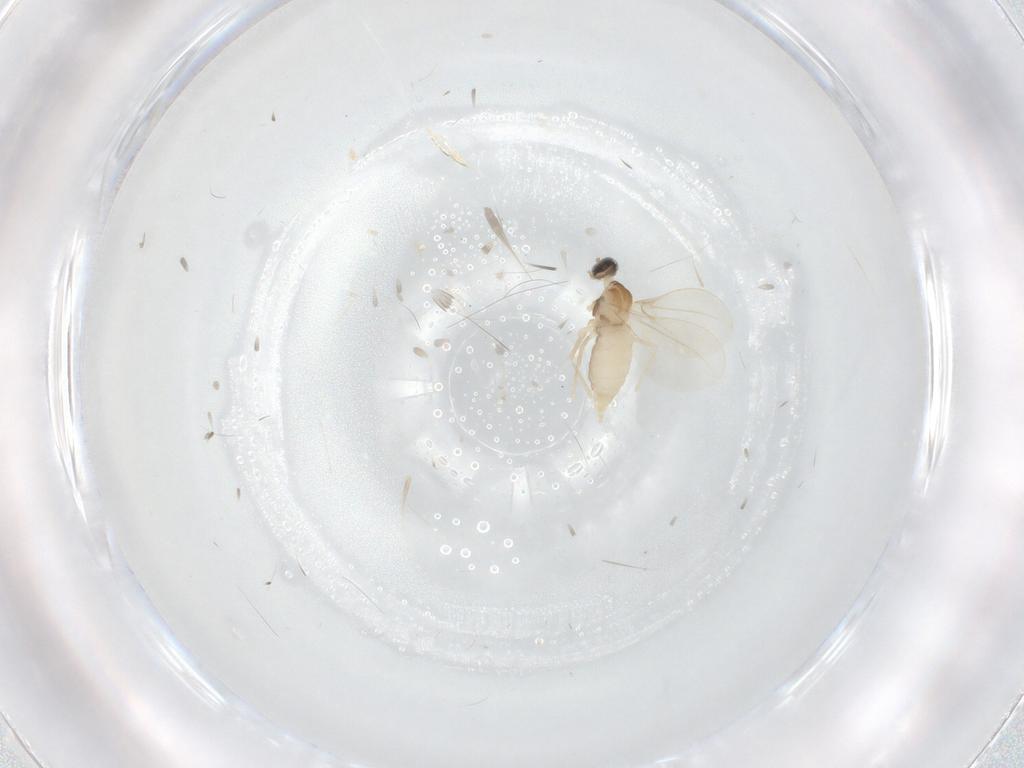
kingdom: Animalia
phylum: Arthropoda
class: Insecta
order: Diptera
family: Cecidomyiidae
